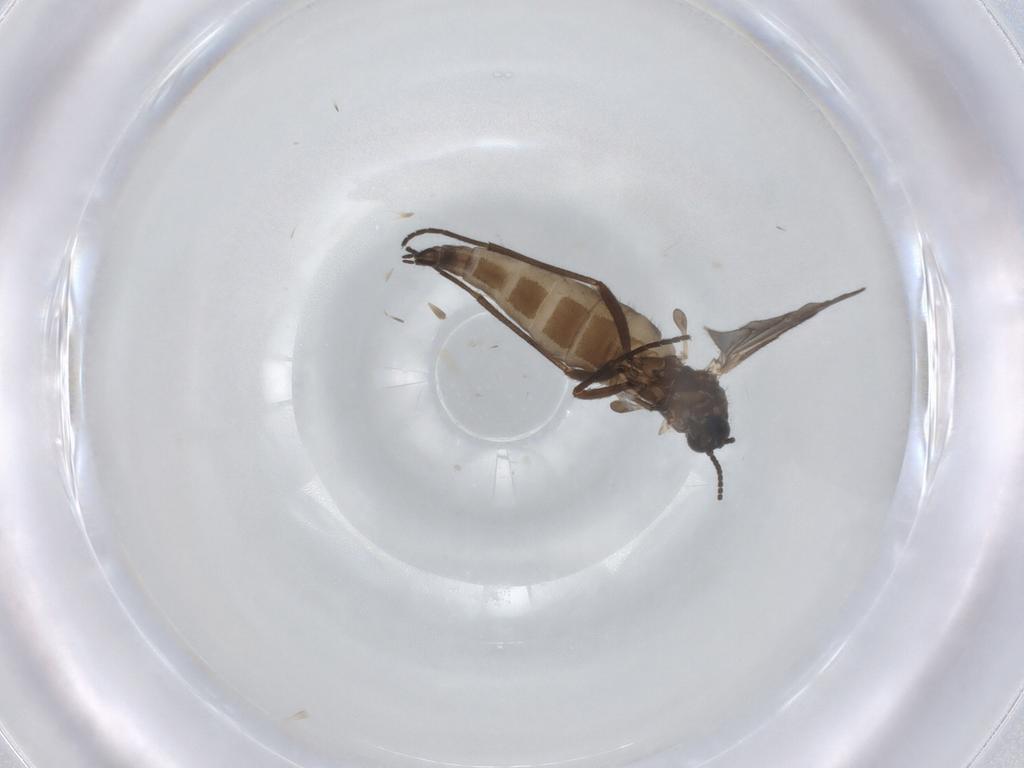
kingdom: Animalia
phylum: Arthropoda
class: Insecta
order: Diptera
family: Sciaridae
